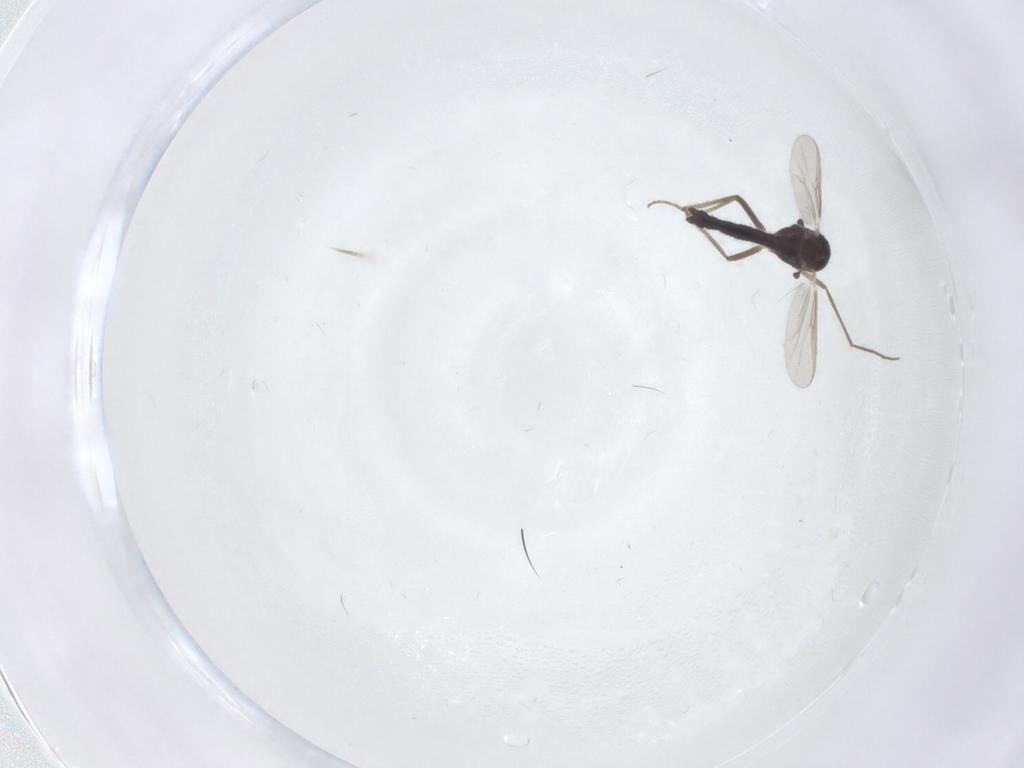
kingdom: Animalia
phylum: Arthropoda
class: Insecta
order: Diptera
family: Chironomidae
